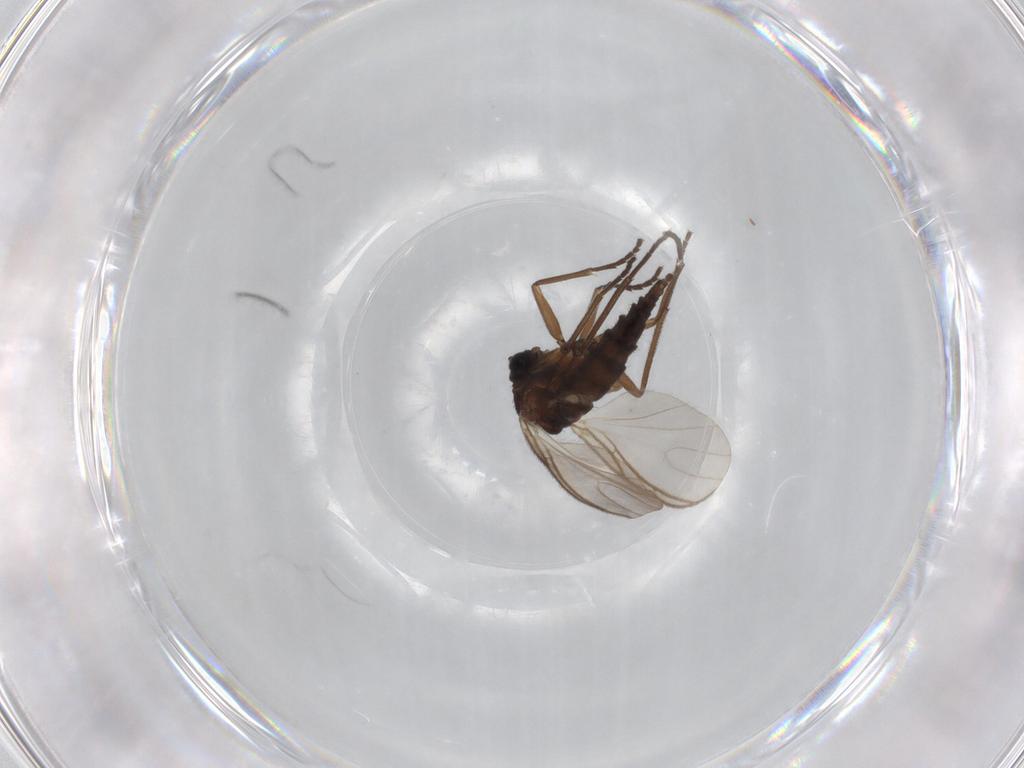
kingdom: Animalia
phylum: Arthropoda
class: Insecta
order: Diptera
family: Sciaridae
